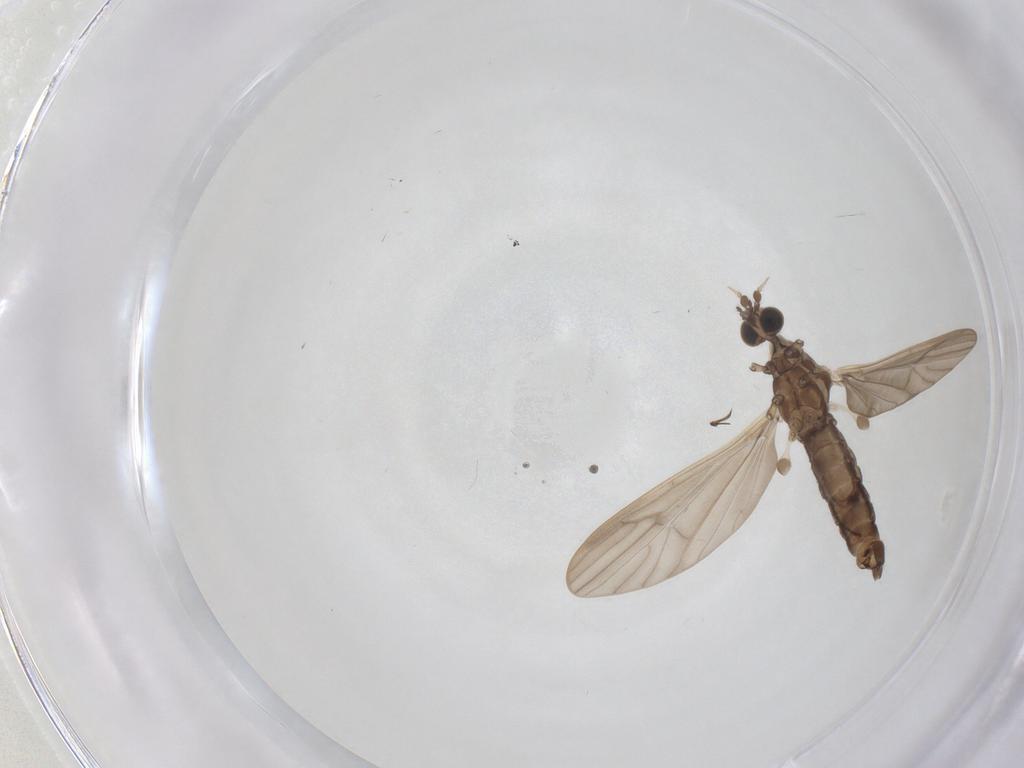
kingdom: Animalia
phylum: Arthropoda
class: Insecta
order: Diptera
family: Limoniidae
